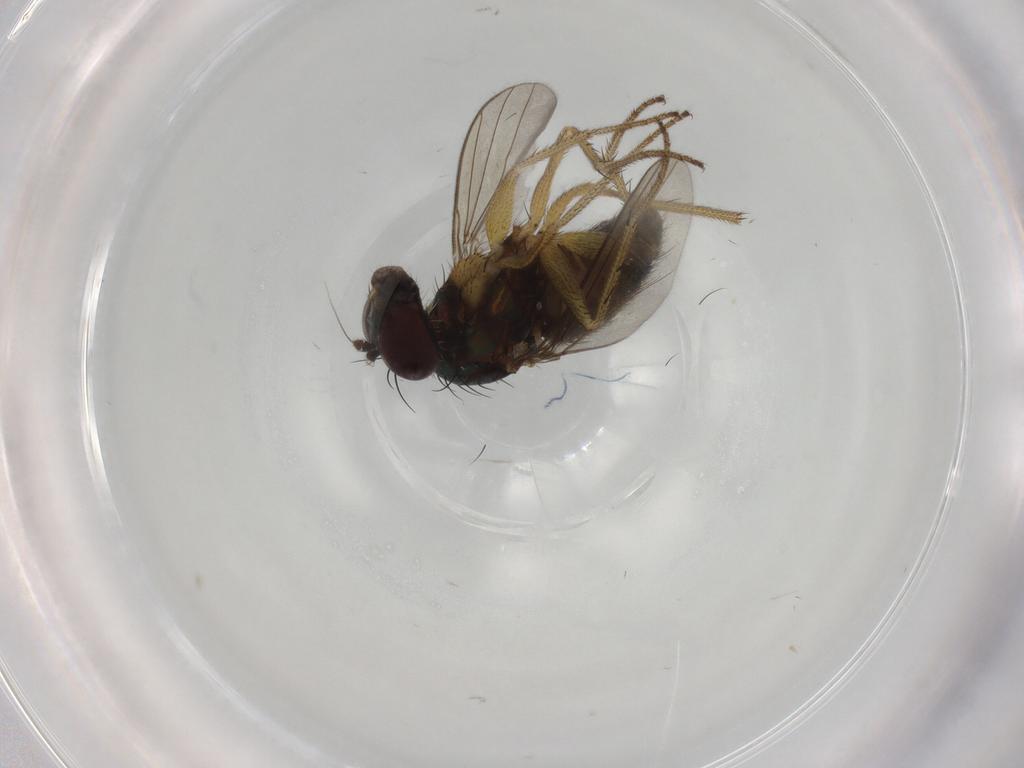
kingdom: Animalia
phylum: Arthropoda
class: Insecta
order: Diptera
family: Dolichopodidae
